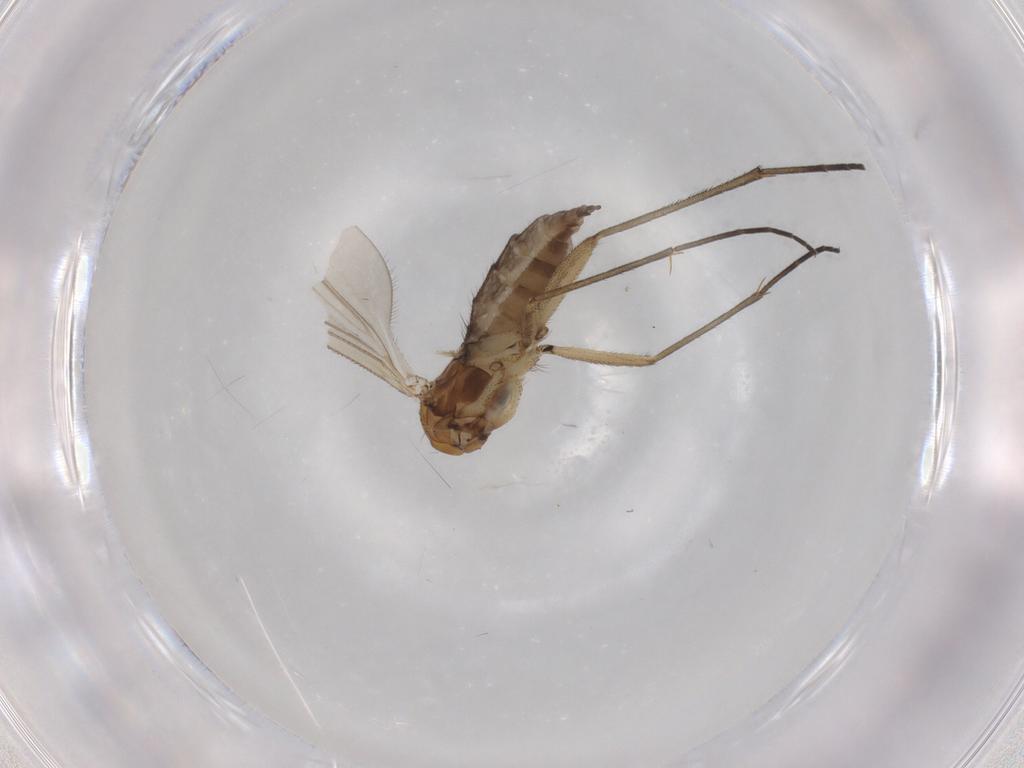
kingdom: Animalia
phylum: Arthropoda
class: Insecta
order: Diptera
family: Sciaridae
